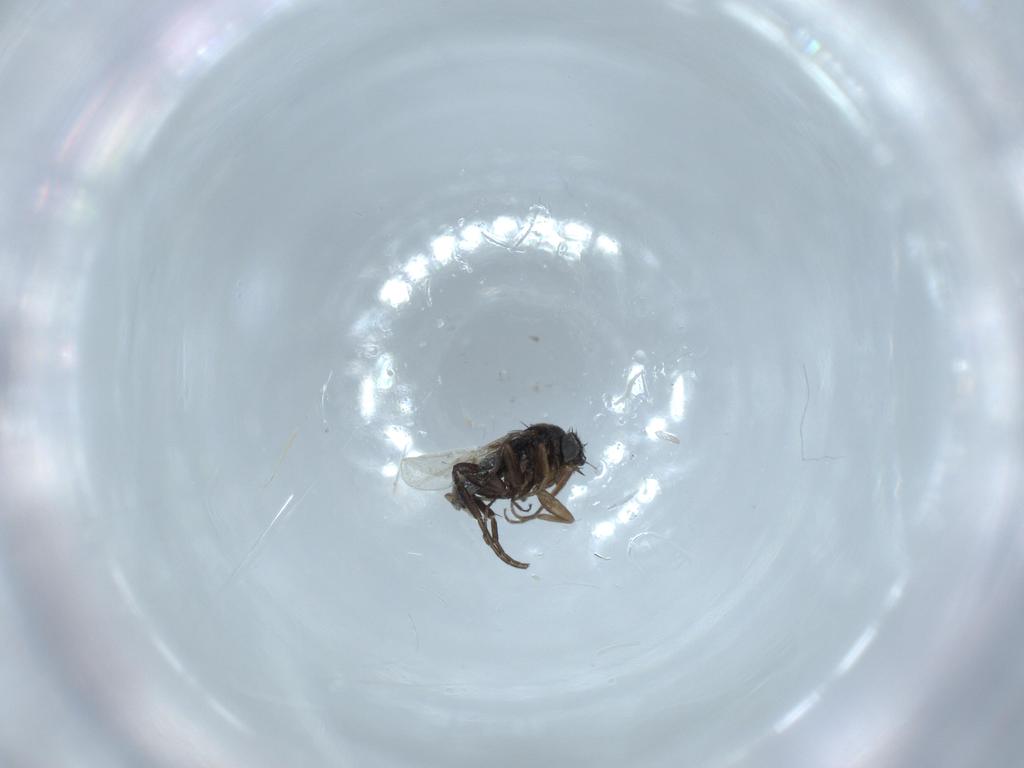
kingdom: Animalia
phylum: Arthropoda
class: Insecta
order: Diptera
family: Phoridae
